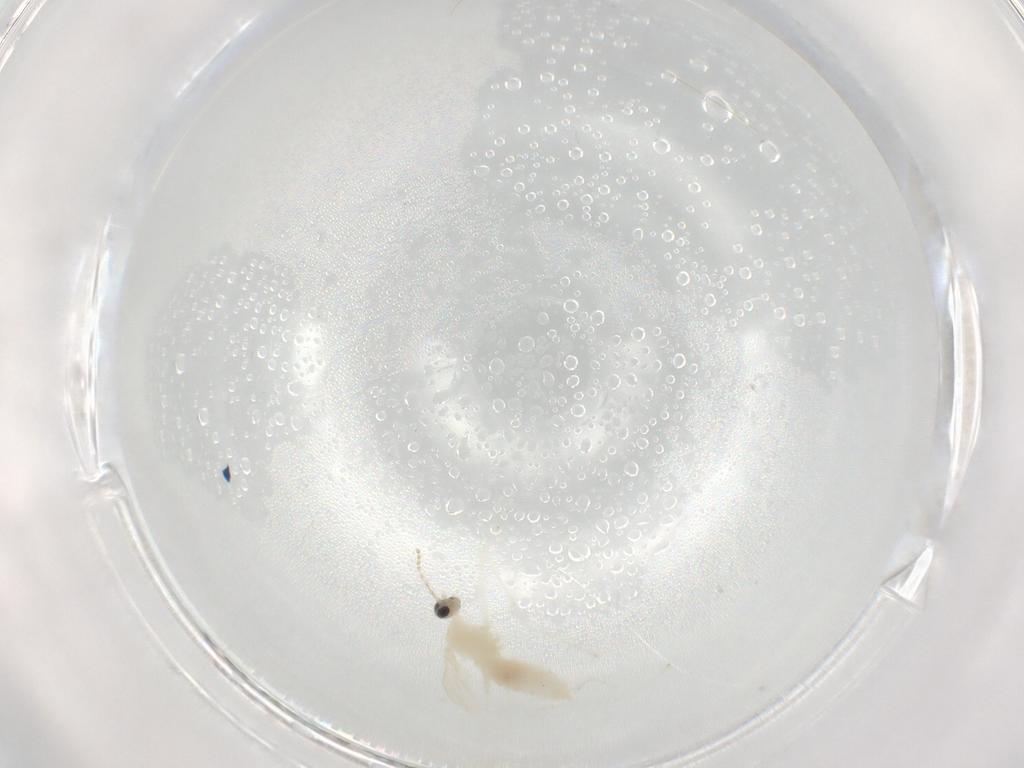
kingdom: Animalia
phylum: Arthropoda
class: Insecta
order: Diptera
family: Cecidomyiidae
